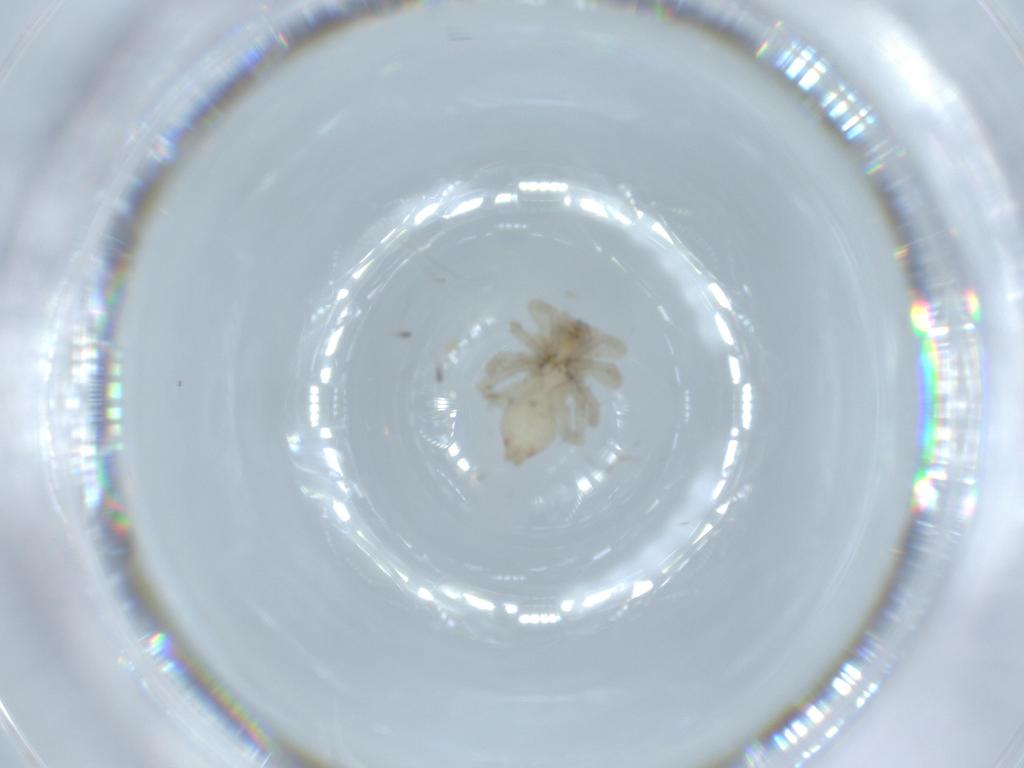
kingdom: Animalia
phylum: Arthropoda
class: Arachnida
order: Araneae
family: Clubionidae
